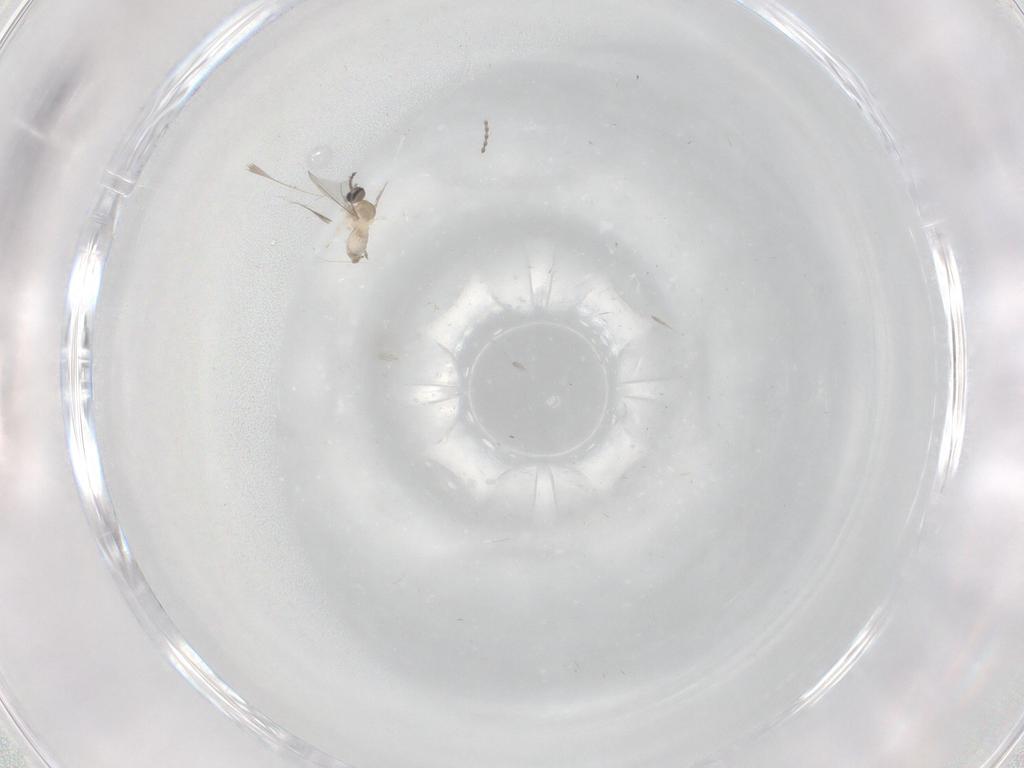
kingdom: Animalia
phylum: Arthropoda
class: Insecta
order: Diptera
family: Cecidomyiidae
